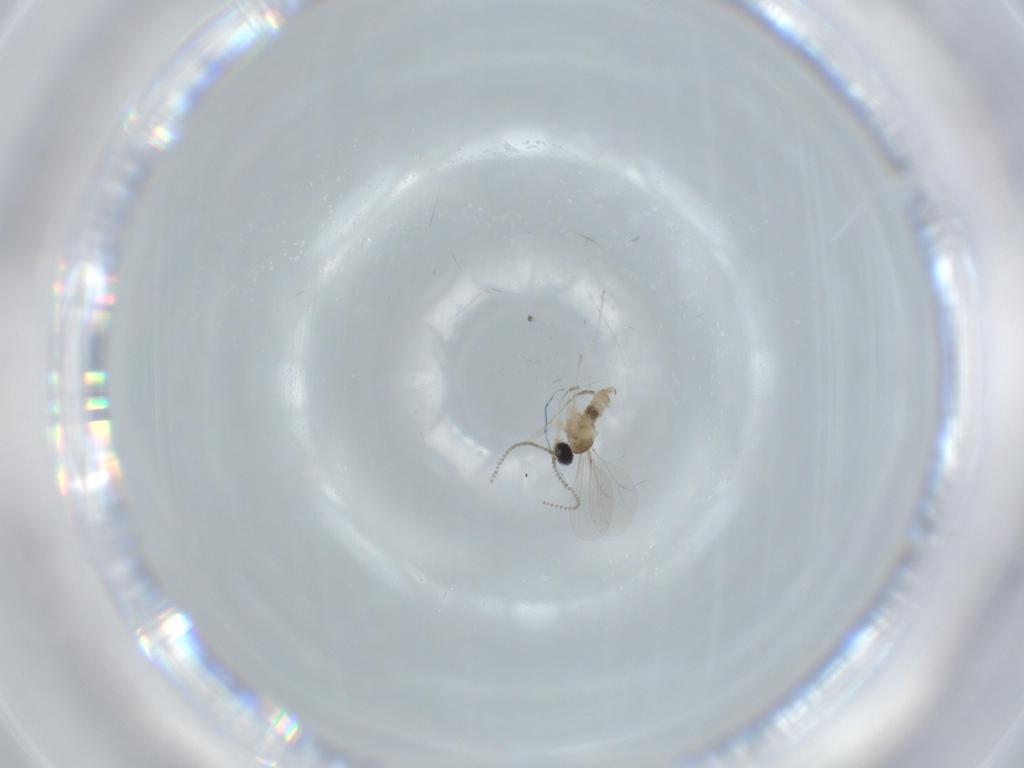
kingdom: Animalia
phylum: Arthropoda
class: Insecta
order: Diptera
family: Cecidomyiidae
